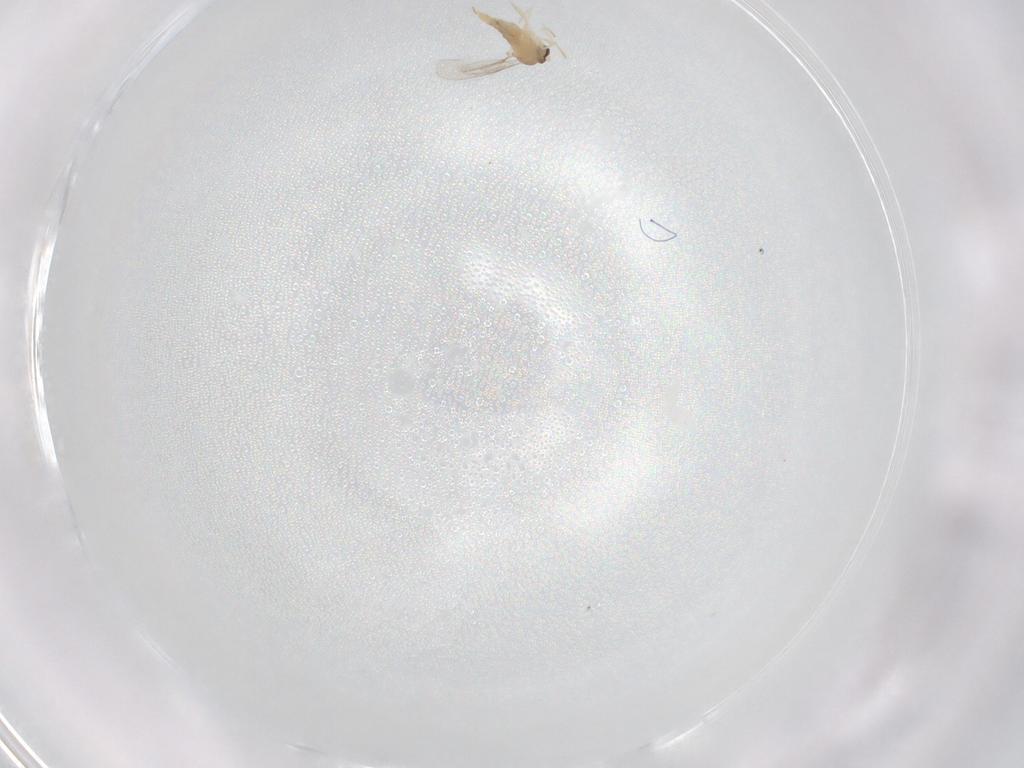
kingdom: Animalia
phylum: Arthropoda
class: Insecta
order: Diptera
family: Cecidomyiidae
